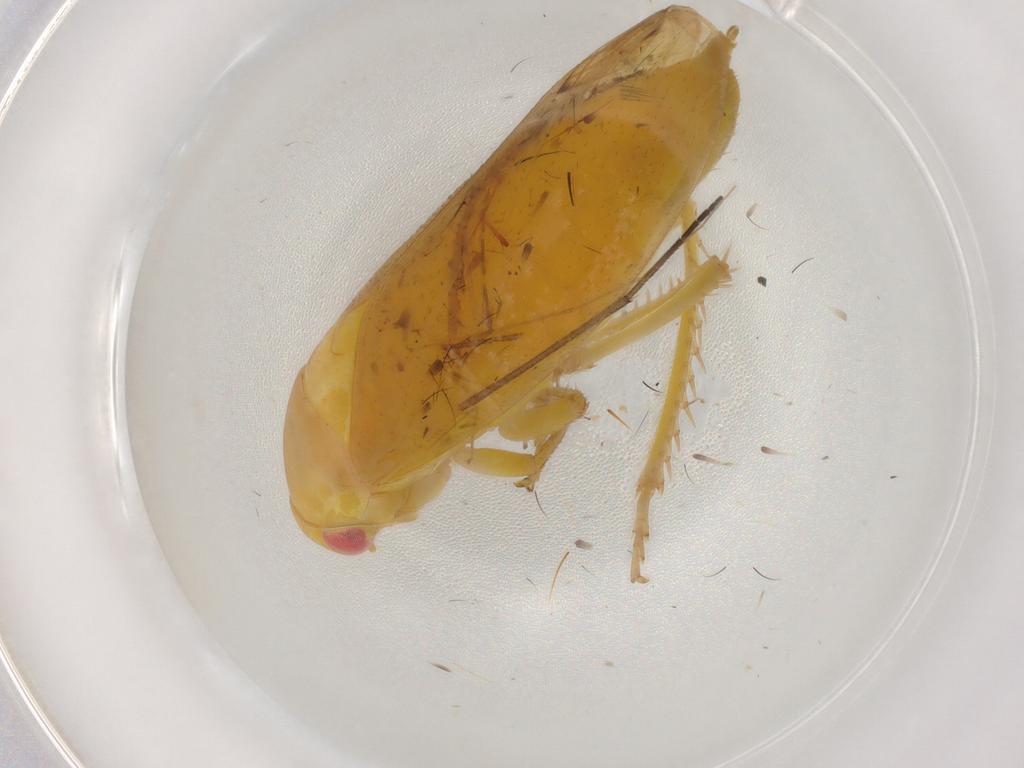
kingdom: Animalia
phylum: Arthropoda
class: Insecta
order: Hemiptera
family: Cicadellidae
